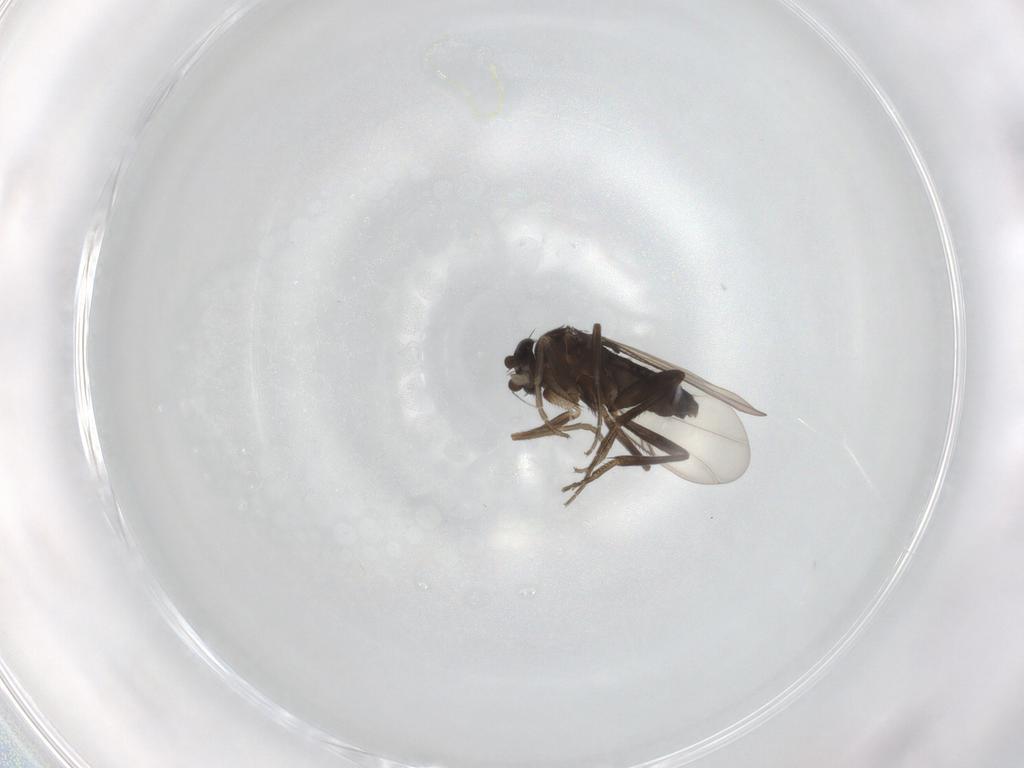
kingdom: Animalia
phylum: Arthropoda
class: Insecta
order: Diptera
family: Phoridae
